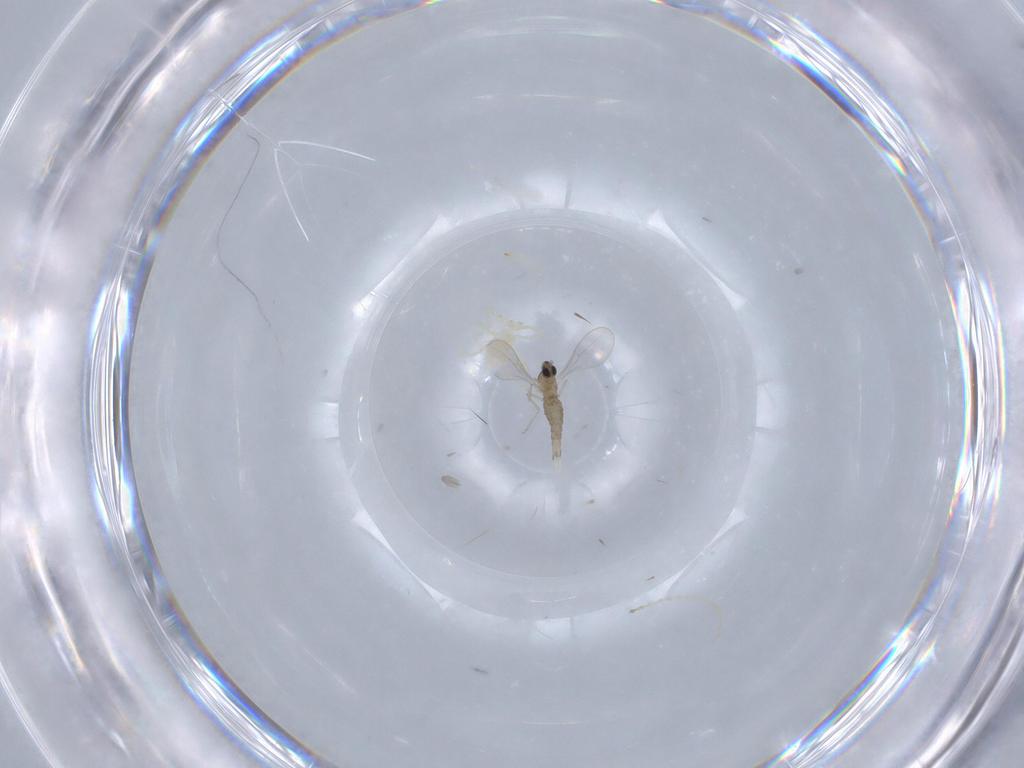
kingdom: Animalia
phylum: Arthropoda
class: Insecta
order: Diptera
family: Cecidomyiidae
